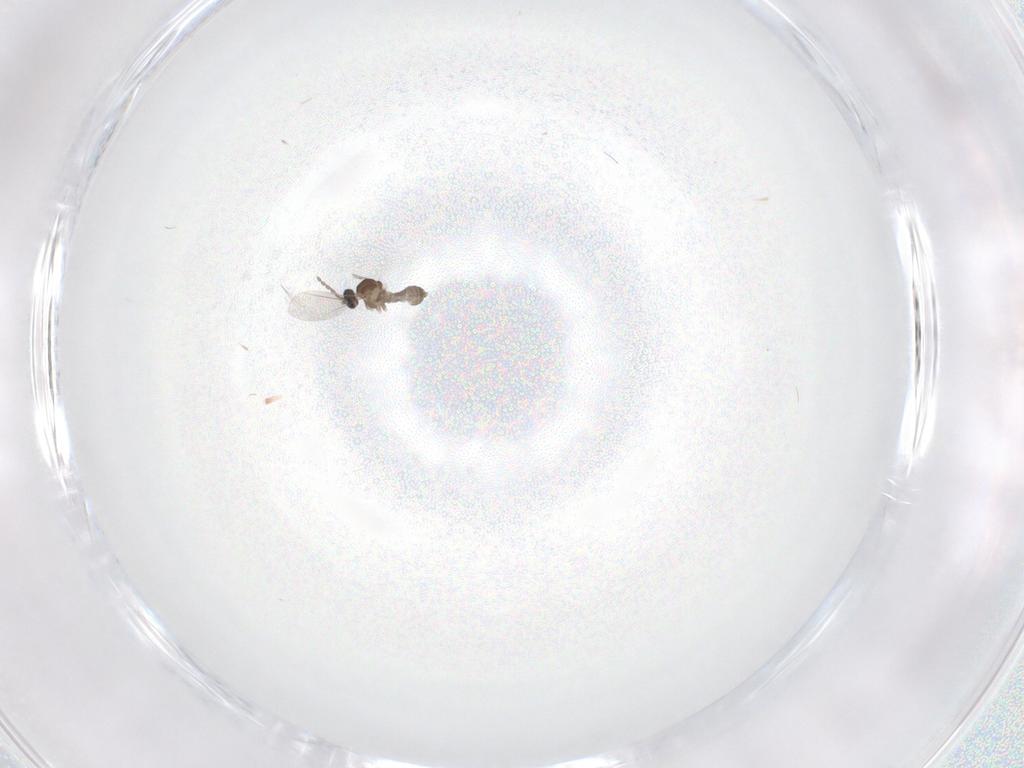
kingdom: Animalia
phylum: Arthropoda
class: Insecta
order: Diptera
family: Cecidomyiidae
